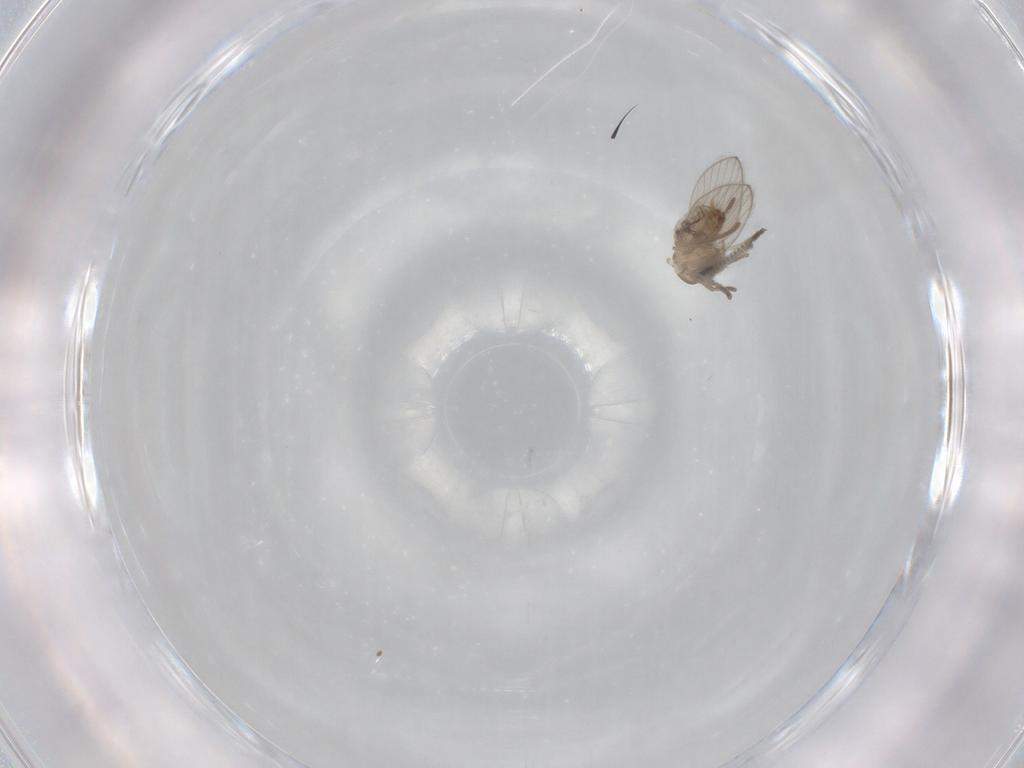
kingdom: Animalia
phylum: Arthropoda
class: Insecta
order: Diptera
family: Psychodidae
